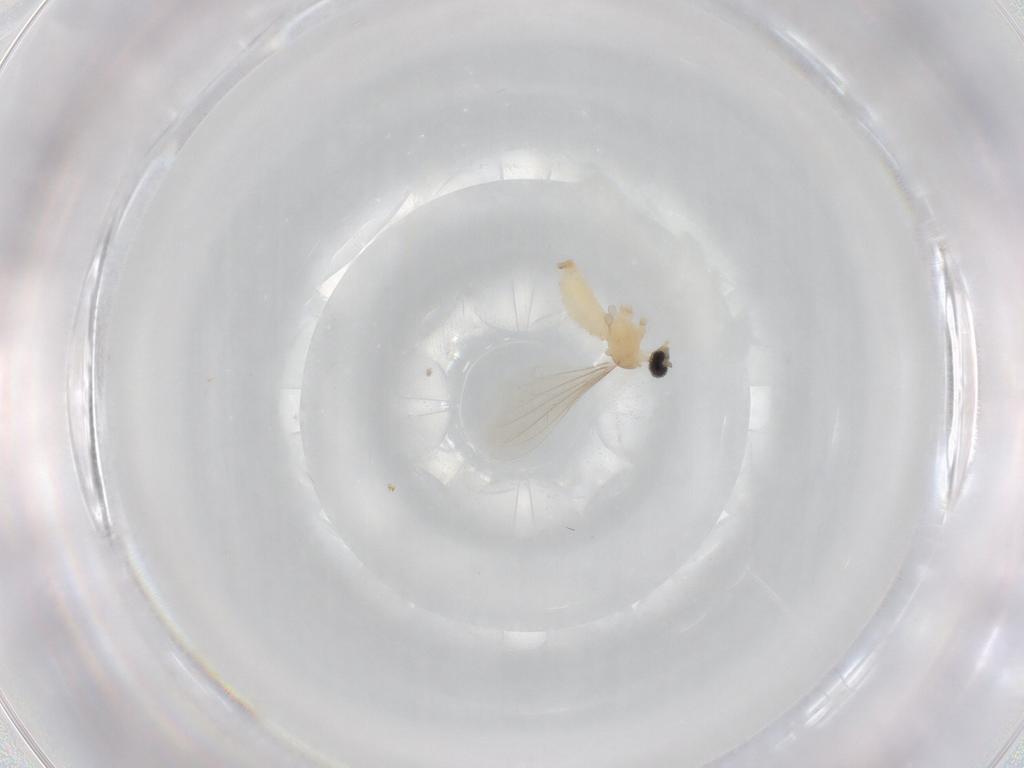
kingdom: Animalia
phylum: Arthropoda
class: Insecta
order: Diptera
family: Cecidomyiidae
